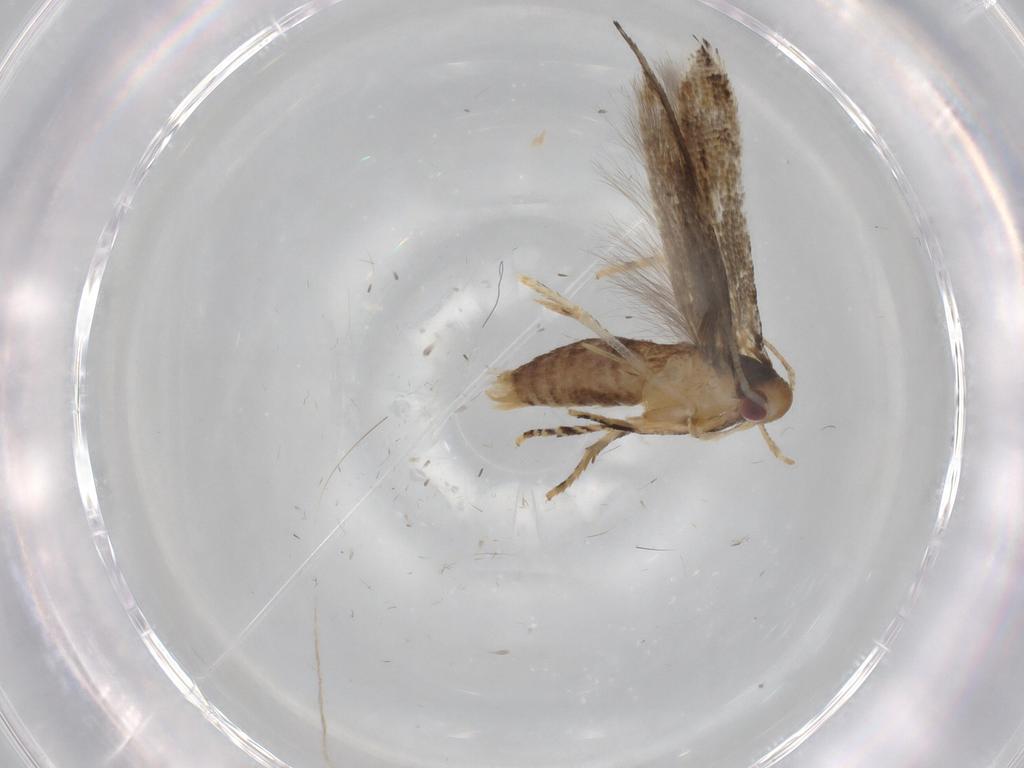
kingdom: Animalia
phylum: Arthropoda
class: Insecta
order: Lepidoptera
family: Momphidae
